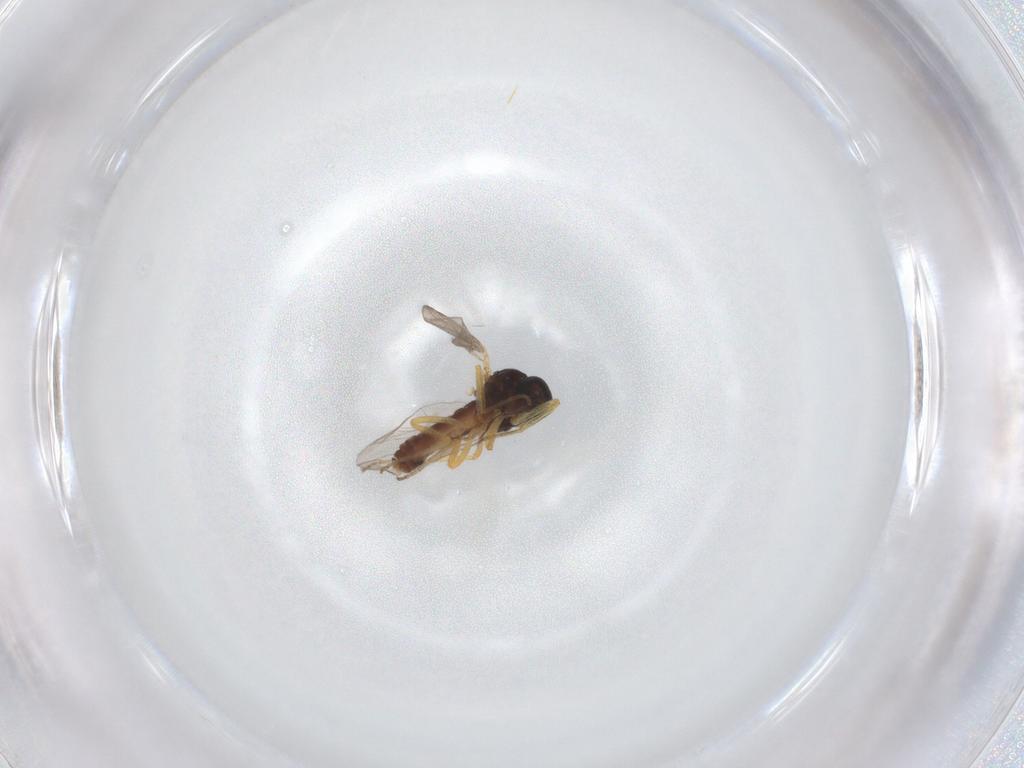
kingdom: Animalia
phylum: Arthropoda
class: Insecta
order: Diptera
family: Ceratopogonidae
